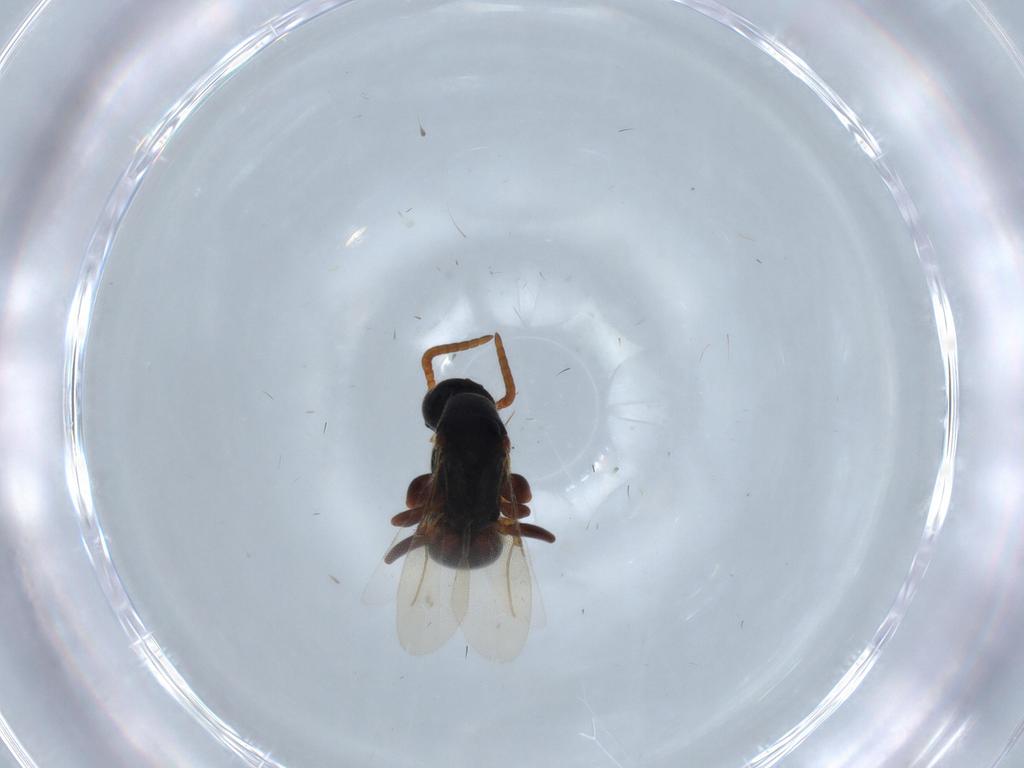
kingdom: Animalia
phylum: Arthropoda
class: Insecta
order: Hymenoptera
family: Bethylidae
